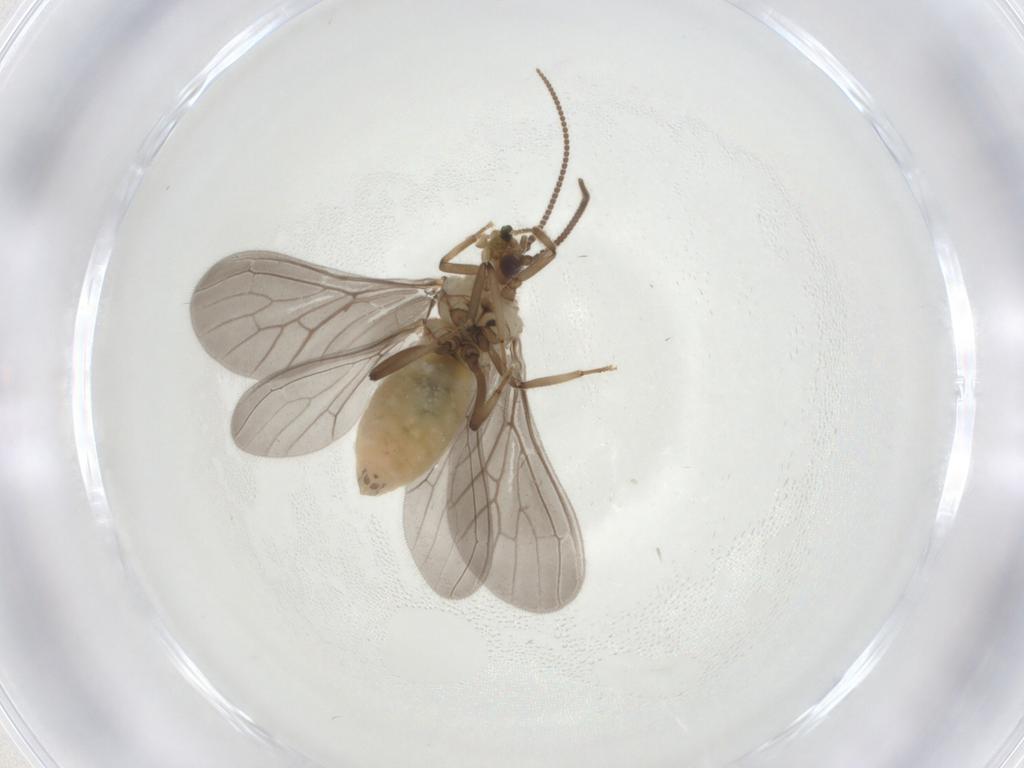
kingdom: Animalia
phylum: Arthropoda
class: Insecta
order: Neuroptera
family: Coniopterygidae
